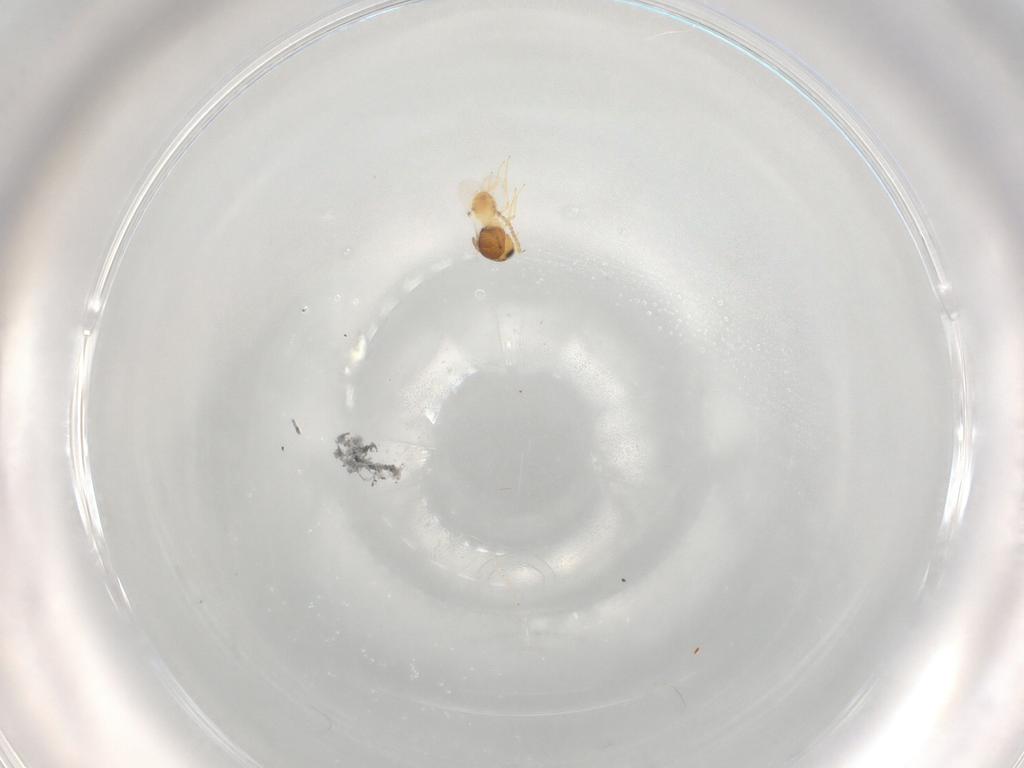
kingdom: Animalia
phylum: Arthropoda
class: Insecta
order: Hymenoptera
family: Scelionidae
